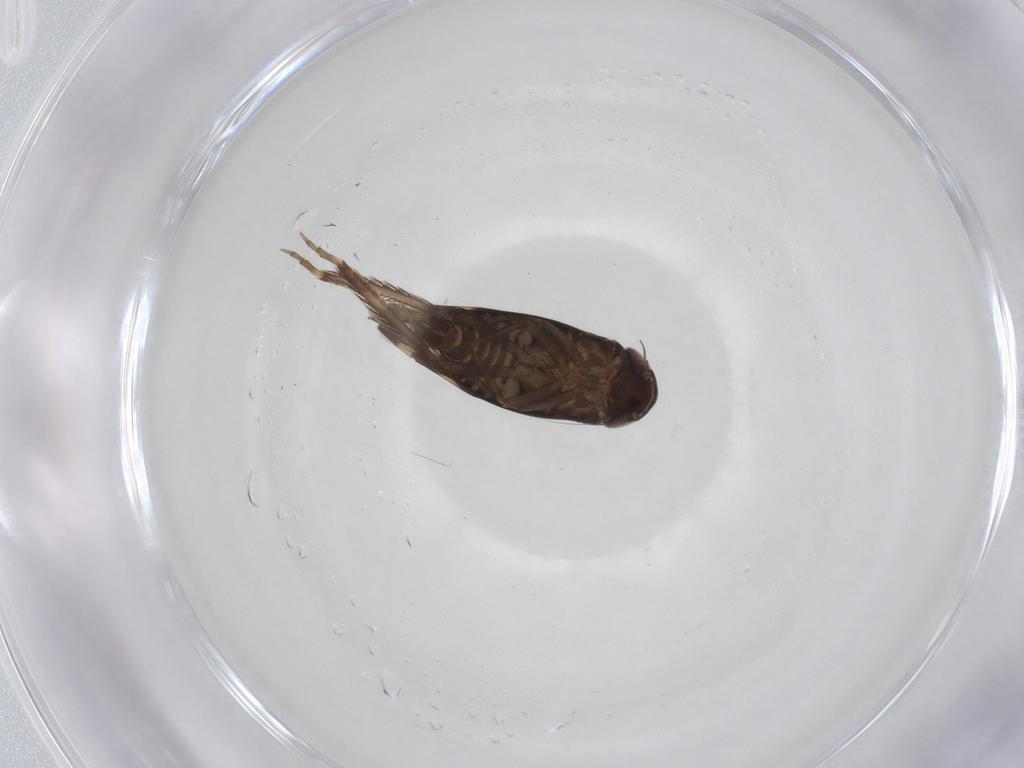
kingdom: Animalia
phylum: Arthropoda
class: Insecta
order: Hemiptera
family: Cicadellidae
